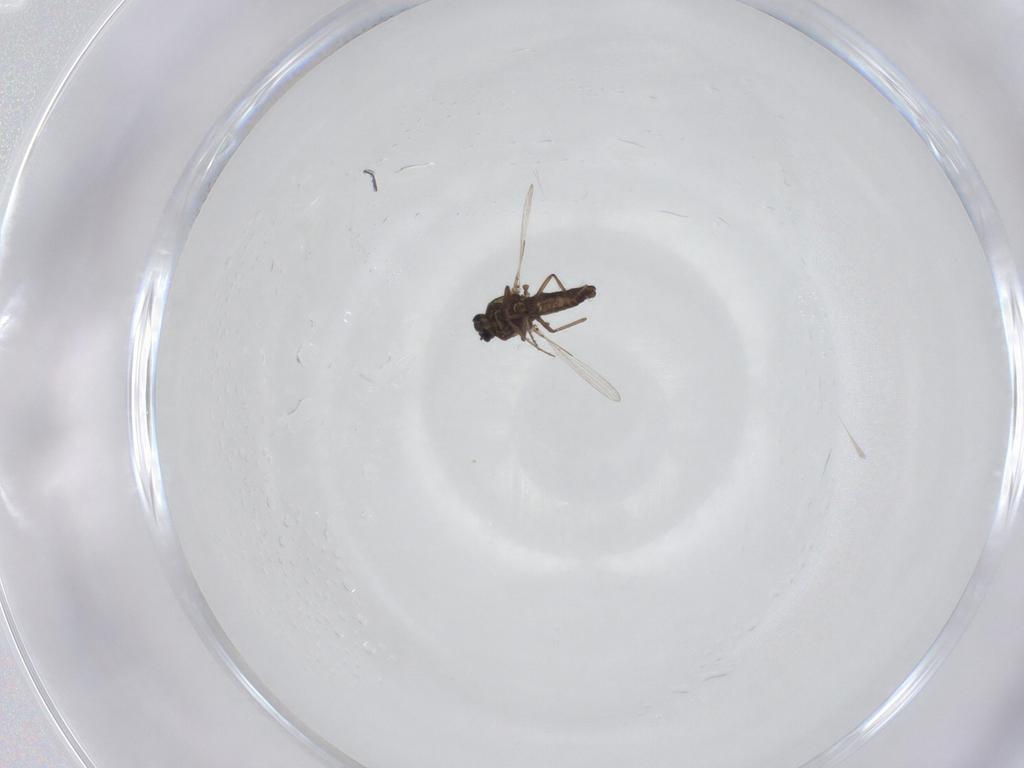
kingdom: Animalia
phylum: Arthropoda
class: Insecta
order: Diptera
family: Ceratopogonidae
